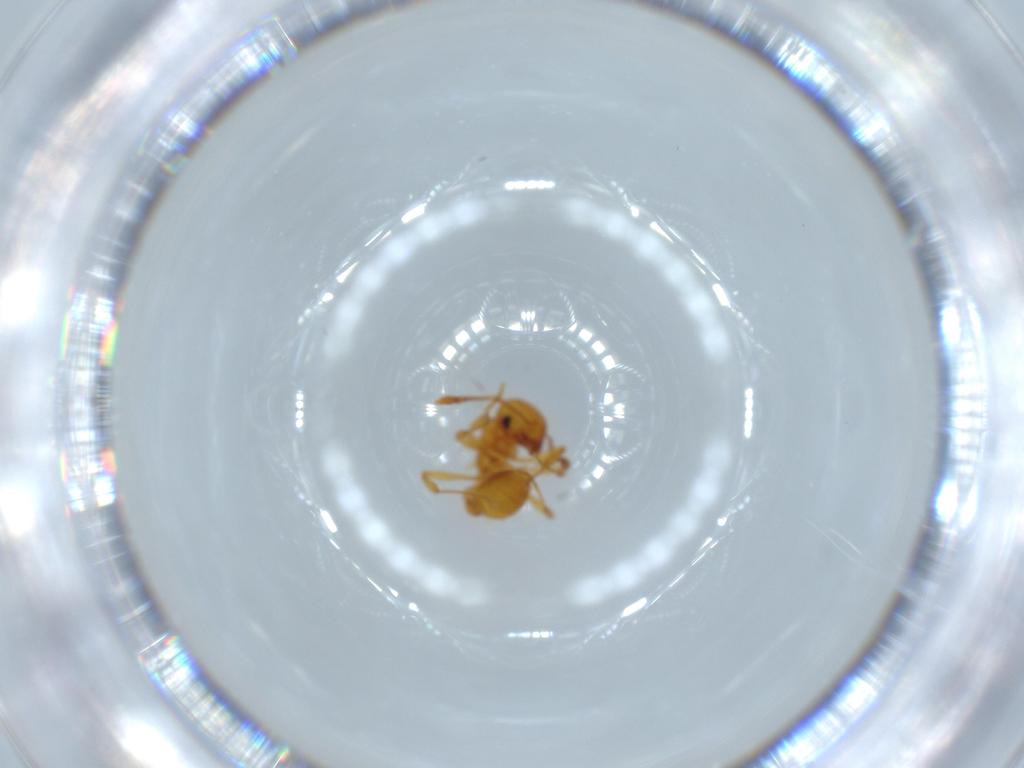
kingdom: Animalia
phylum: Arthropoda
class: Insecta
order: Hymenoptera
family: Formicidae
